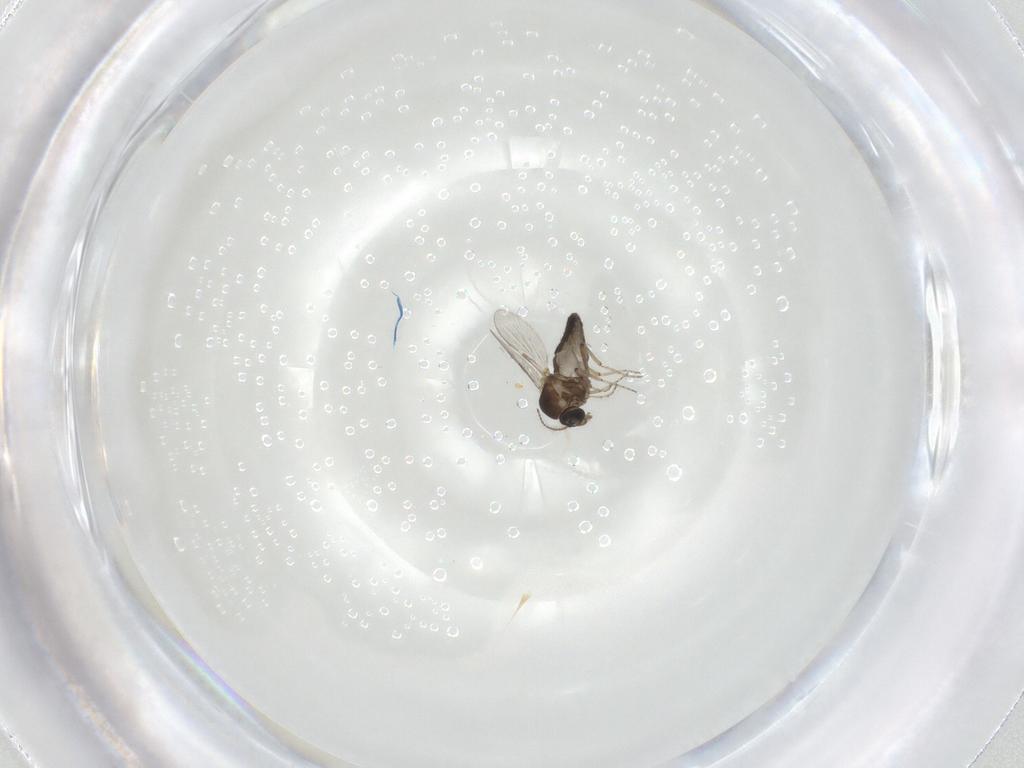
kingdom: Animalia
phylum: Arthropoda
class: Insecta
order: Diptera
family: Ceratopogonidae
